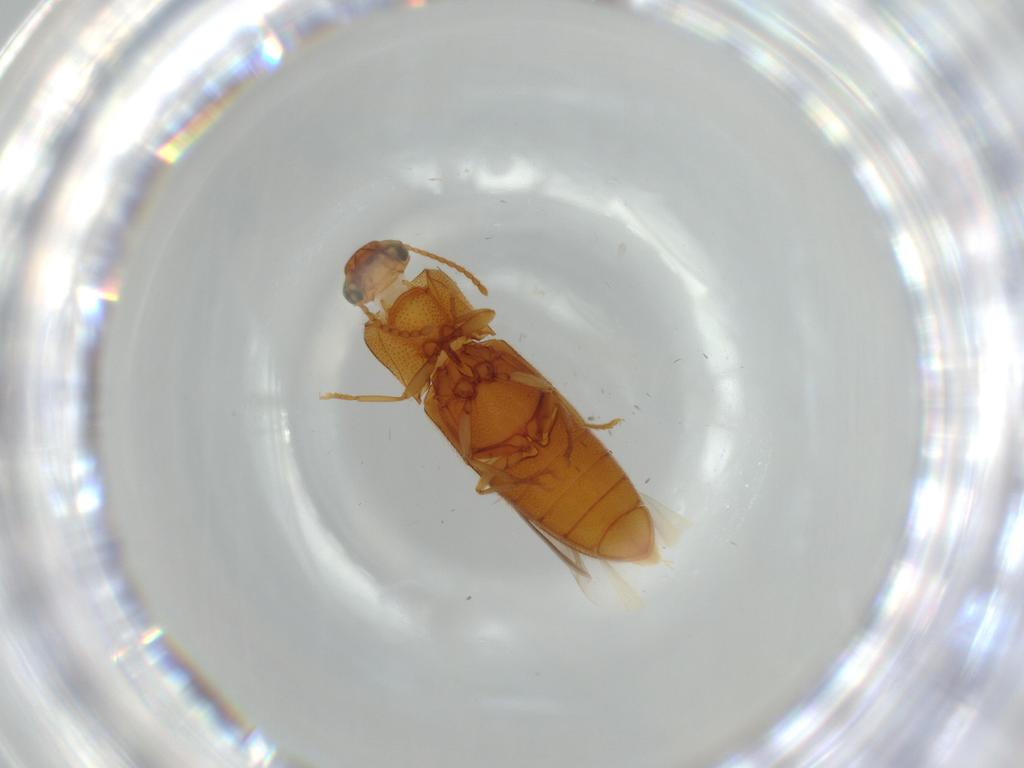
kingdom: Animalia
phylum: Arthropoda
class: Insecta
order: Coleoptera
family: Elateridae
